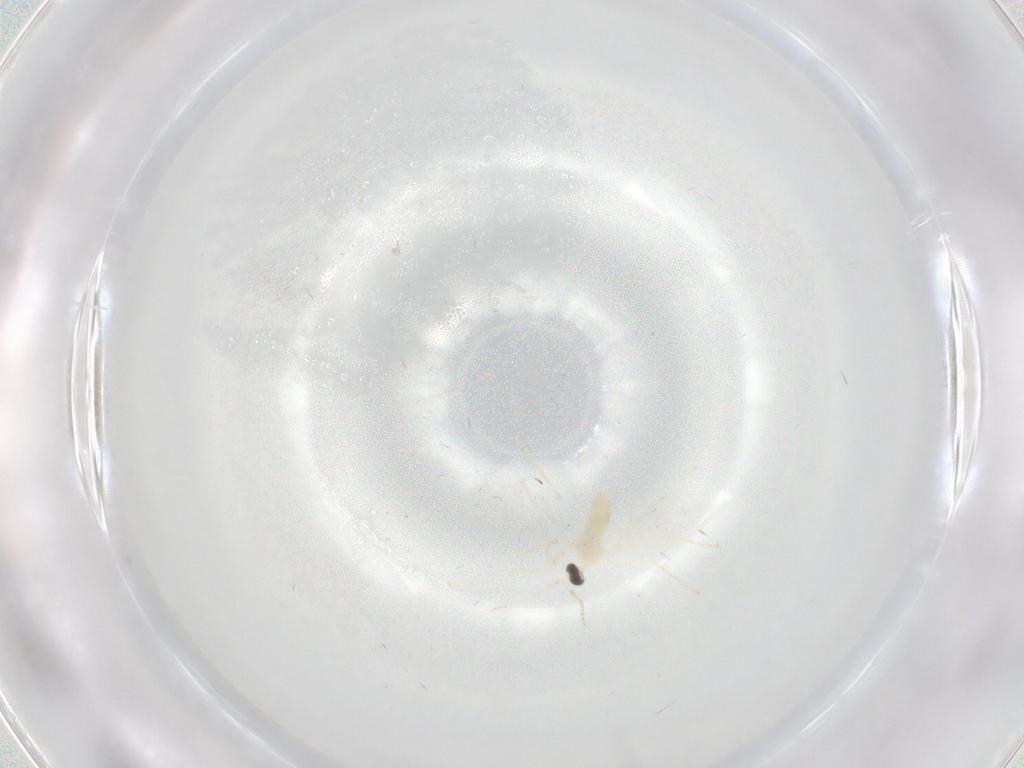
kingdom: Animalia
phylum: Arthropoda
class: Insecta
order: Diptera
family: Cecidomyiidae
